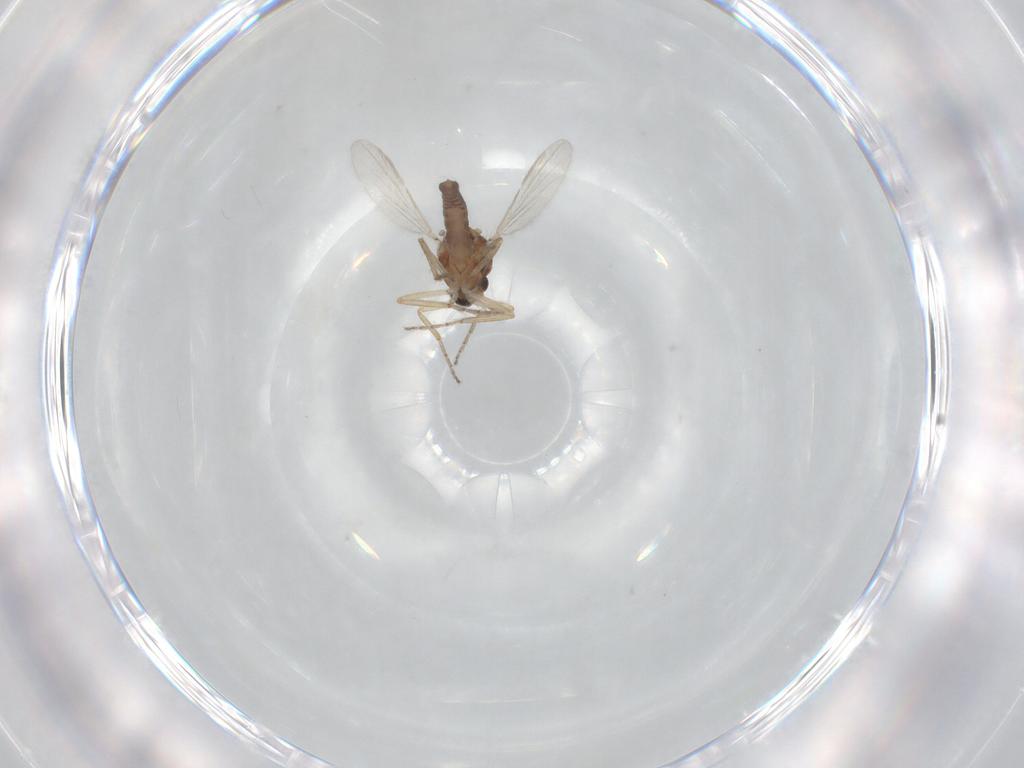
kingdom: Animalia
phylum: Arthropoda
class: Insecta
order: Diptera
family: Ceratopogonidae
